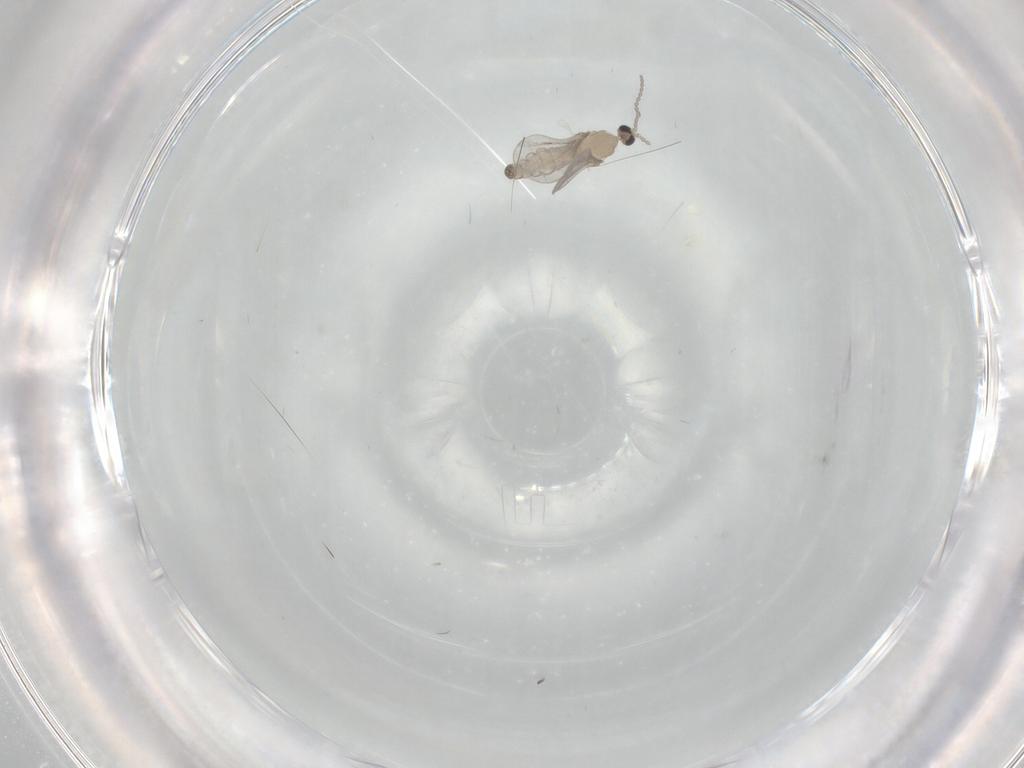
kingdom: Animalia
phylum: Arthropoda
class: Insecta
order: Diptera
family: Cecidomyiidae
